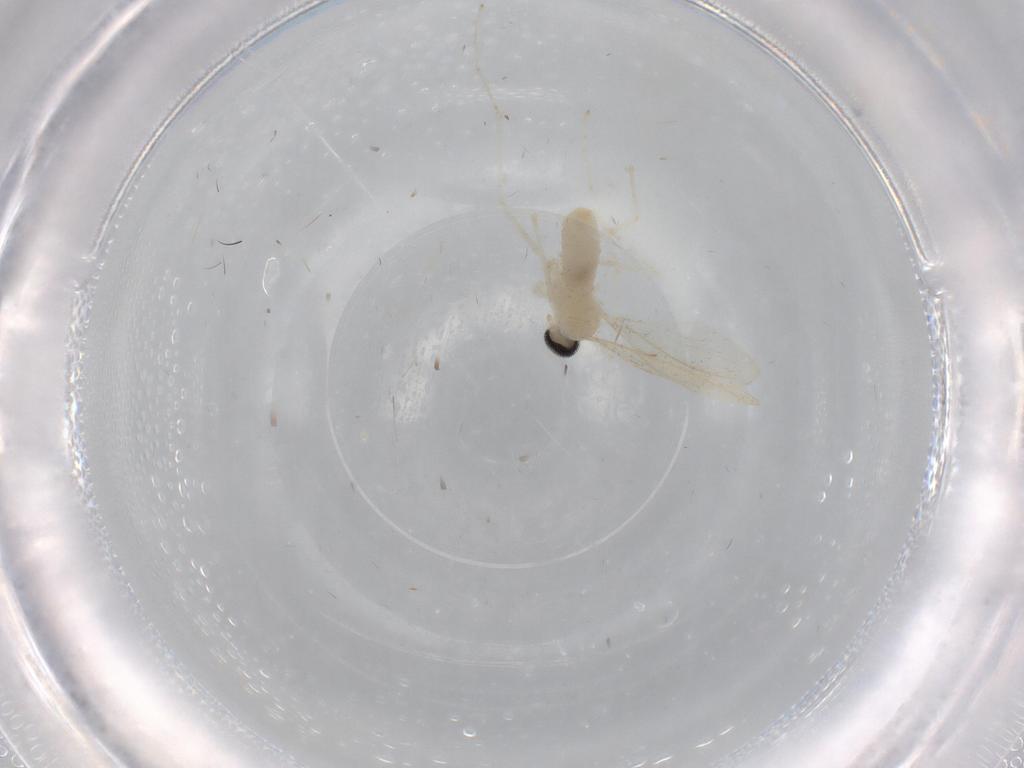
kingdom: Animalia
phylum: Arthropoda
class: Insecta
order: Diptera
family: Cecidomyiidae
